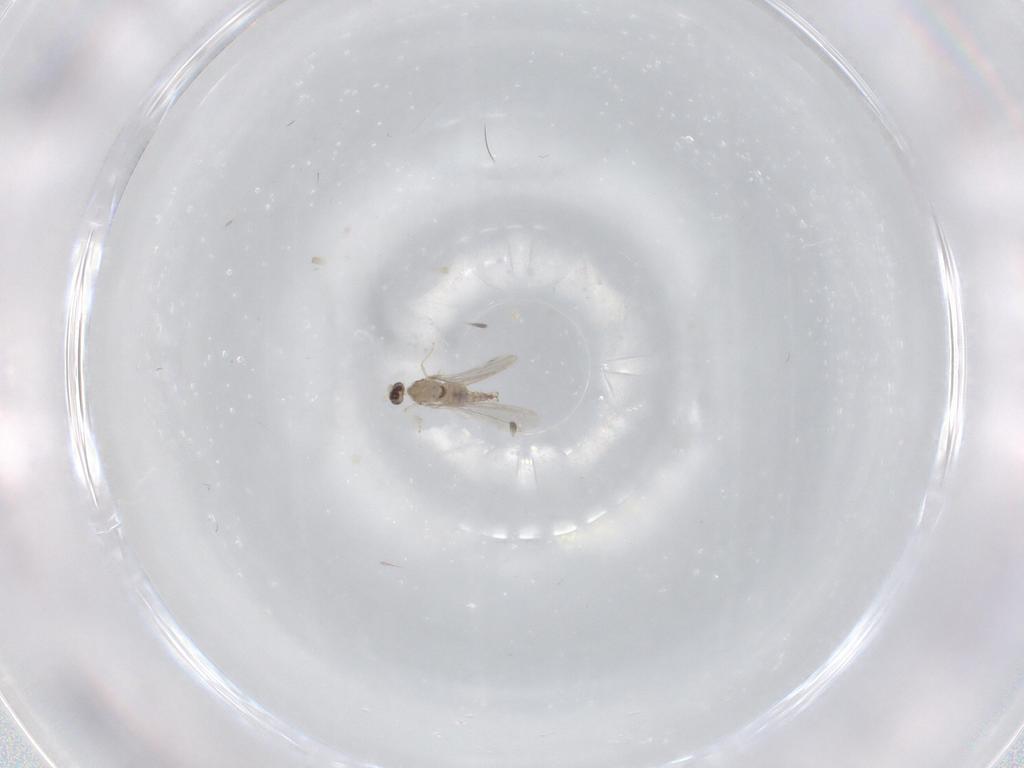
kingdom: Animalia
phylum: Arthropoda
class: Insecta
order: Diptera
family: Cecidomyiidae
